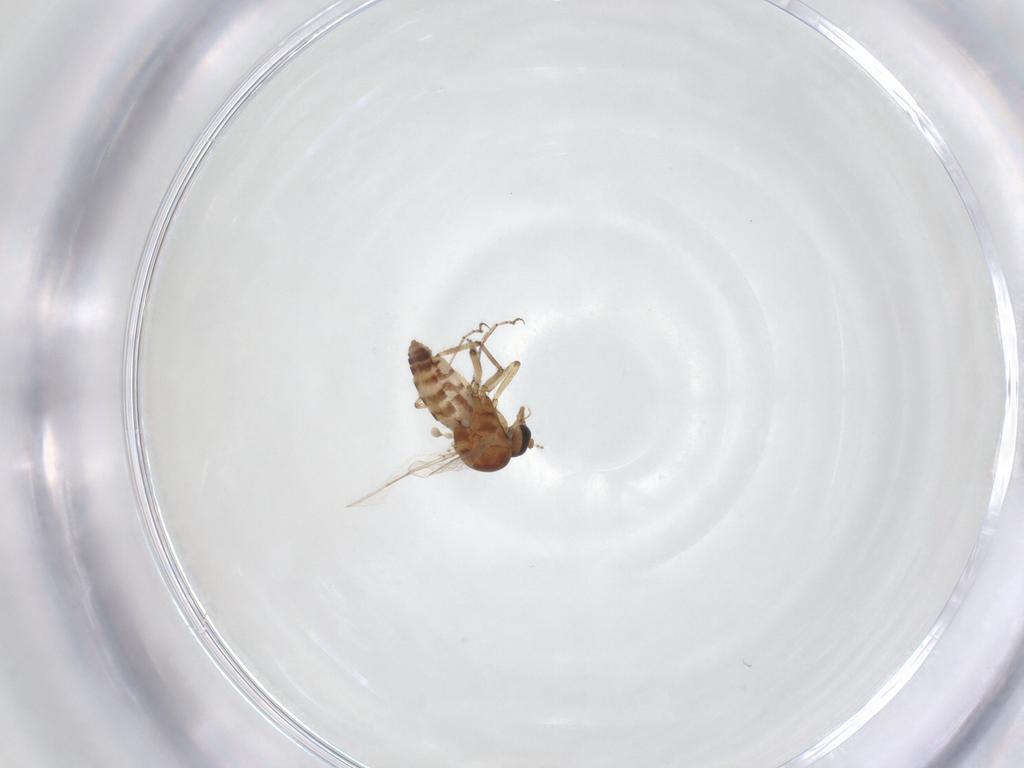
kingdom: Animalia
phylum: Arthropoda
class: Insecta
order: Diptera
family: Ceratopogonidae
